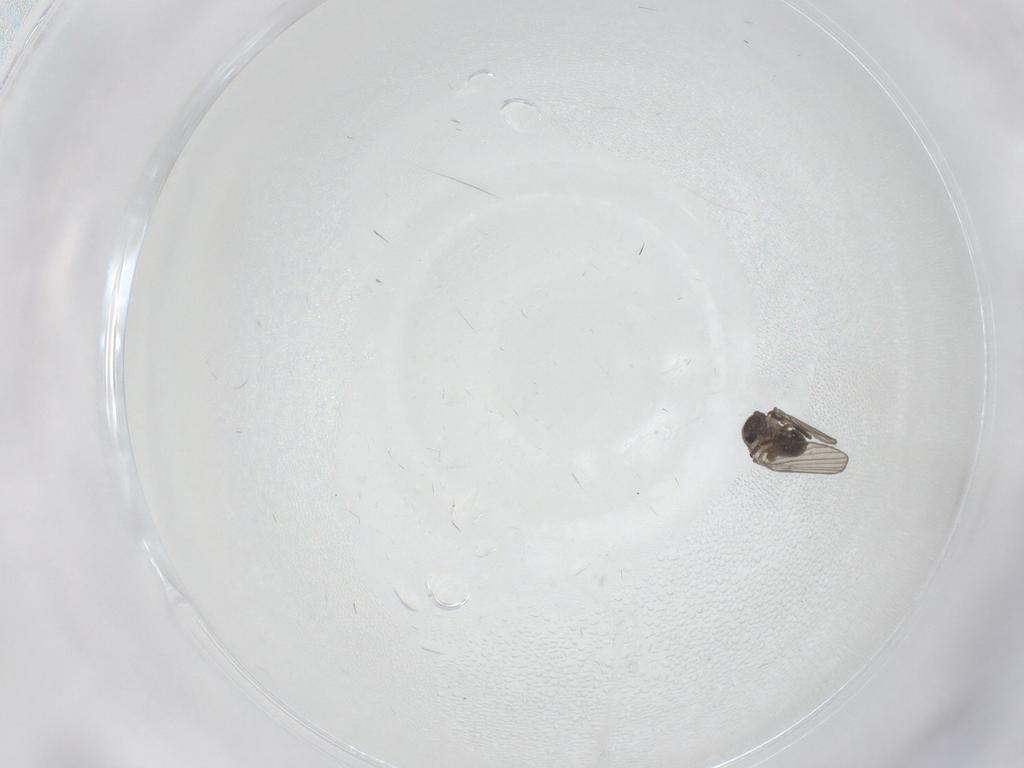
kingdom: Animalia
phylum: Arthropoda
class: Insecta
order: Diptera
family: Psychodidae
